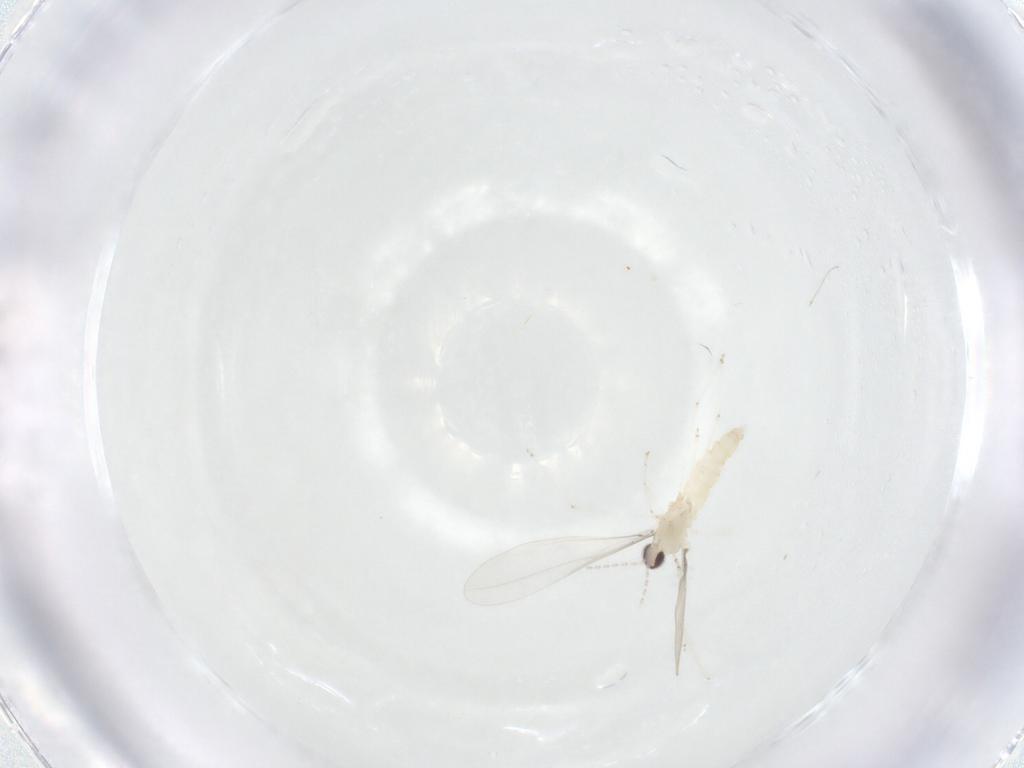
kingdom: Animalia
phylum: Arthropoda
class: Insecta
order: Diptera
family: Cecidomyiidae
